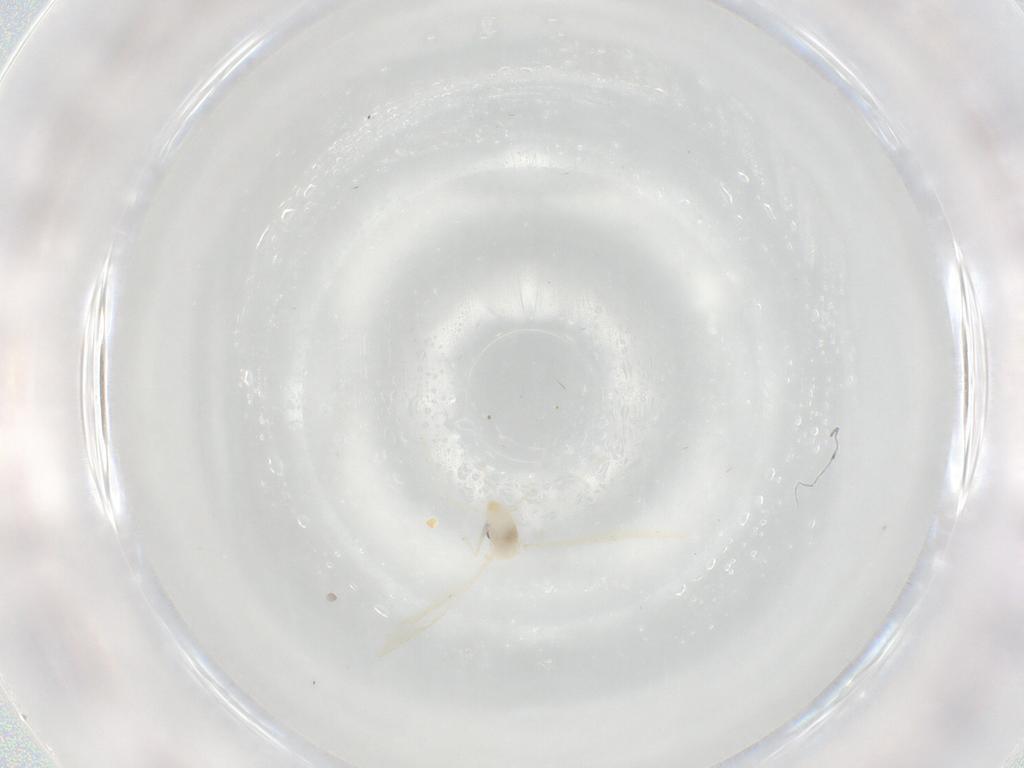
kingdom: Animalia
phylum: Arthropoda
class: Insecta
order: Diptera
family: Cecidomyiidae
